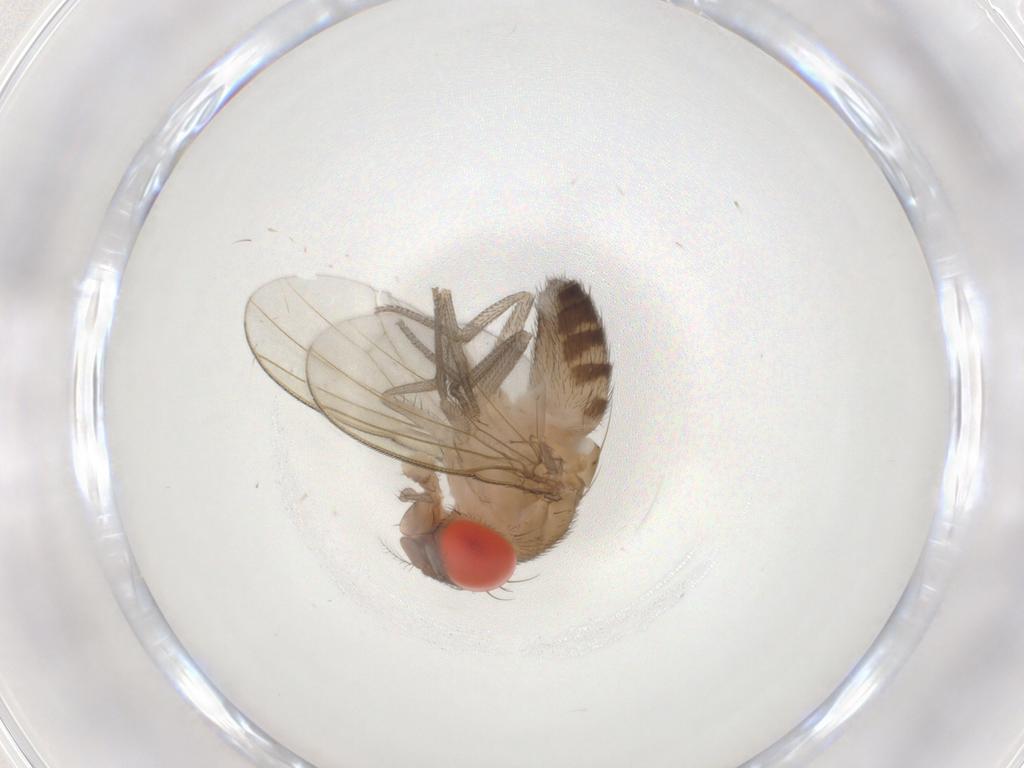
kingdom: Animalia
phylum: Arthropoda
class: Insecta
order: Diptera
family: Drosophilidae
